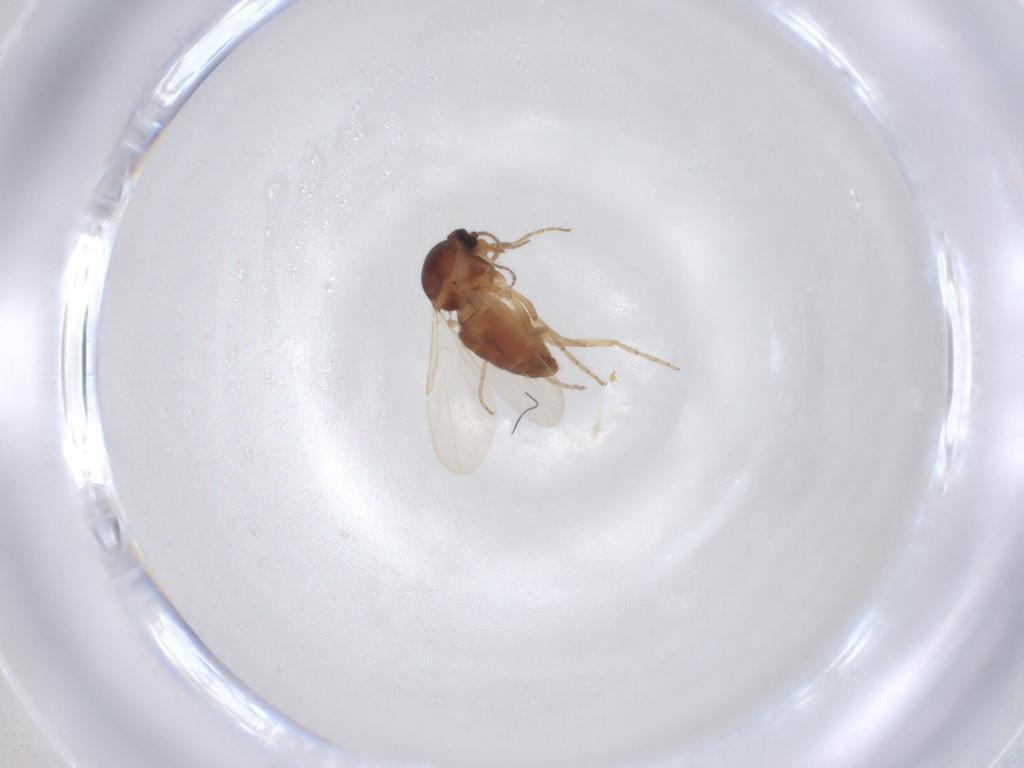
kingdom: Animalia
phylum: Arthropoda
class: Insecta
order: Diptera
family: Ceratopogonidae
